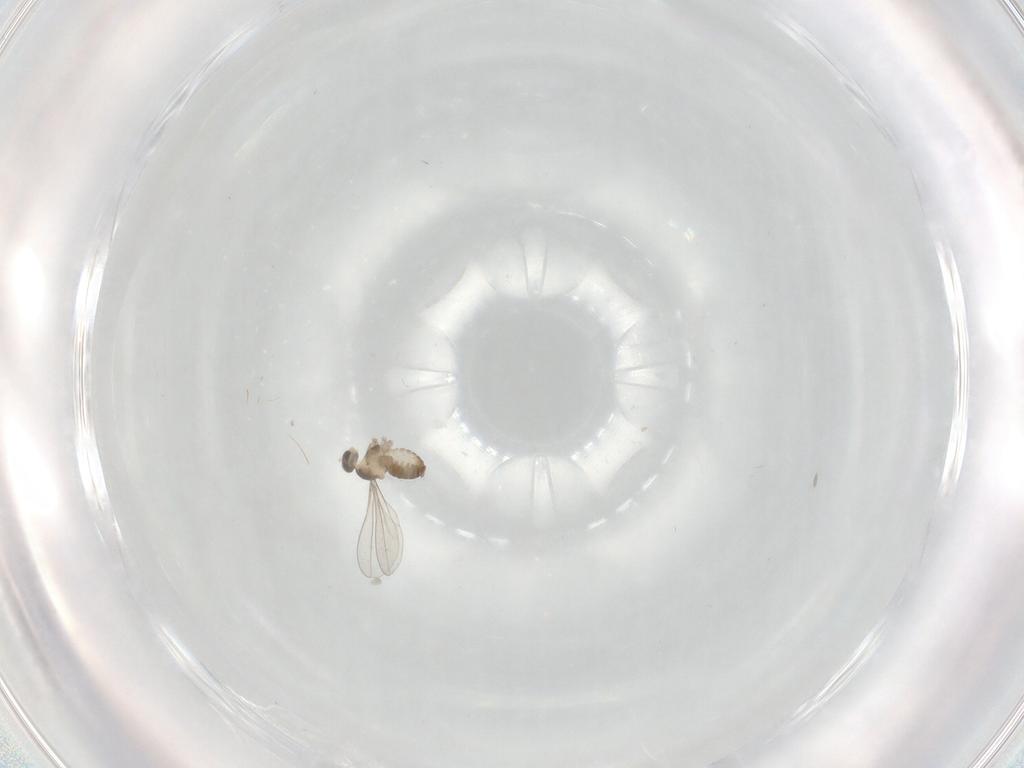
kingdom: Animalia
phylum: Arthropoda
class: Insecta
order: Diptera
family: Cecidomyiidae
